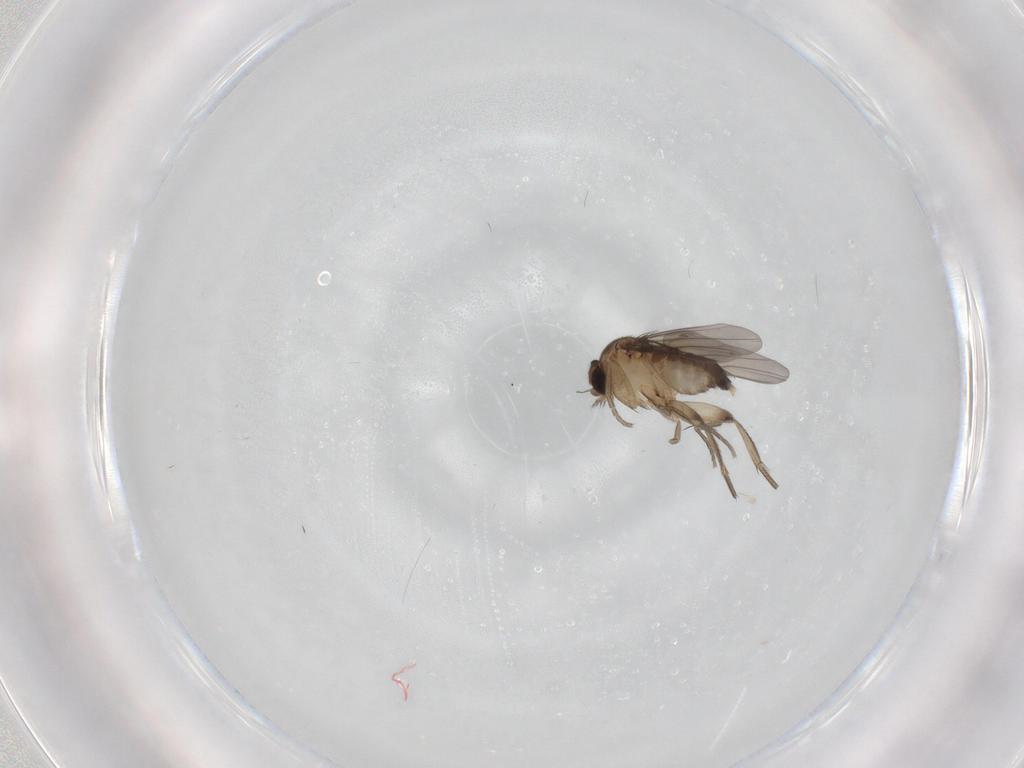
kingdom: Animalia
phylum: Arthropoda
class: Insecta
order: Diptera
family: Phoridae
